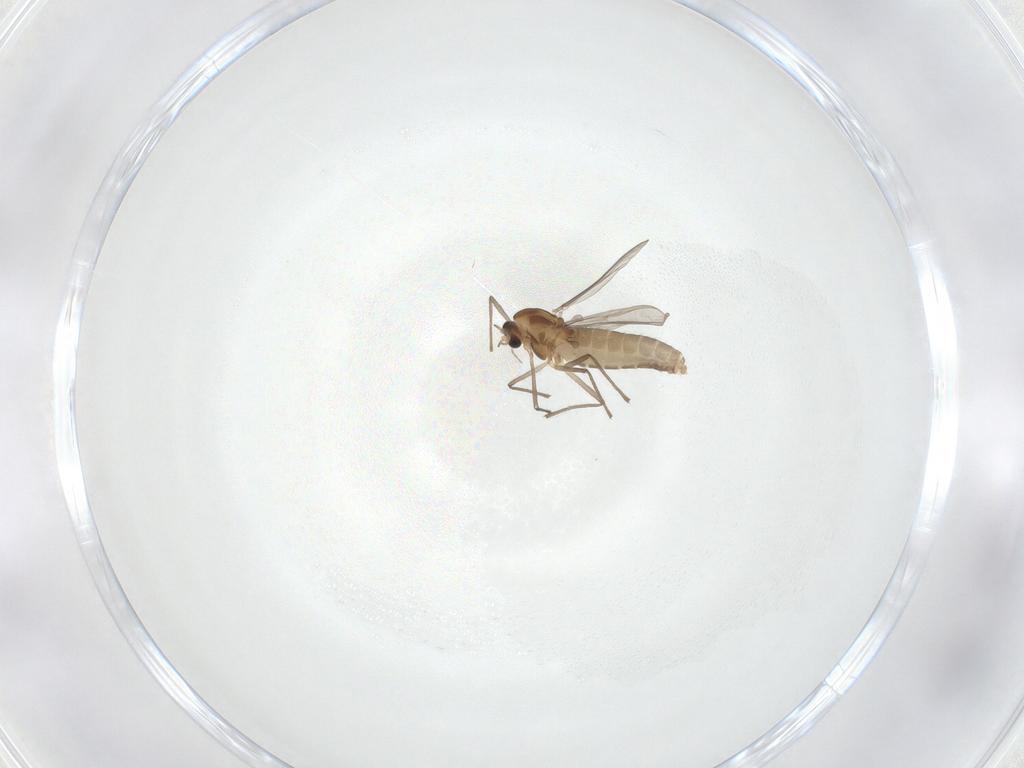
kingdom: Animalia
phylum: Arthropoda
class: Insecta
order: Diptera
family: Chironomidae
